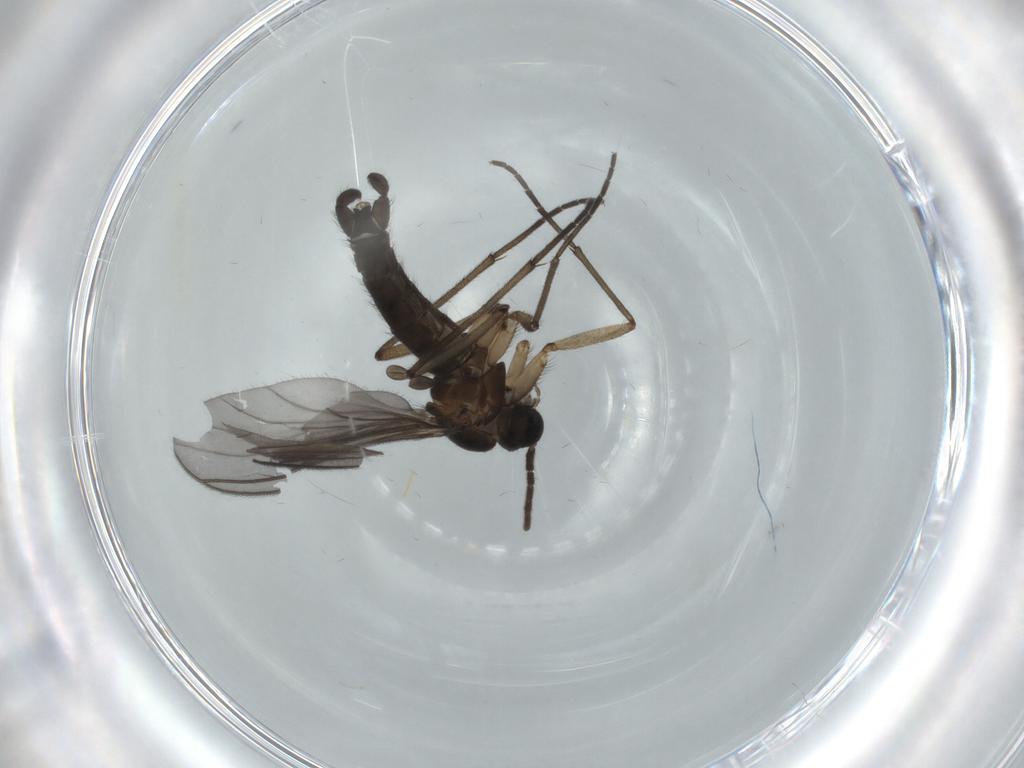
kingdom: Animalia
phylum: Arthropoda
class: Insecta
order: Diptera
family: Sciaridae
